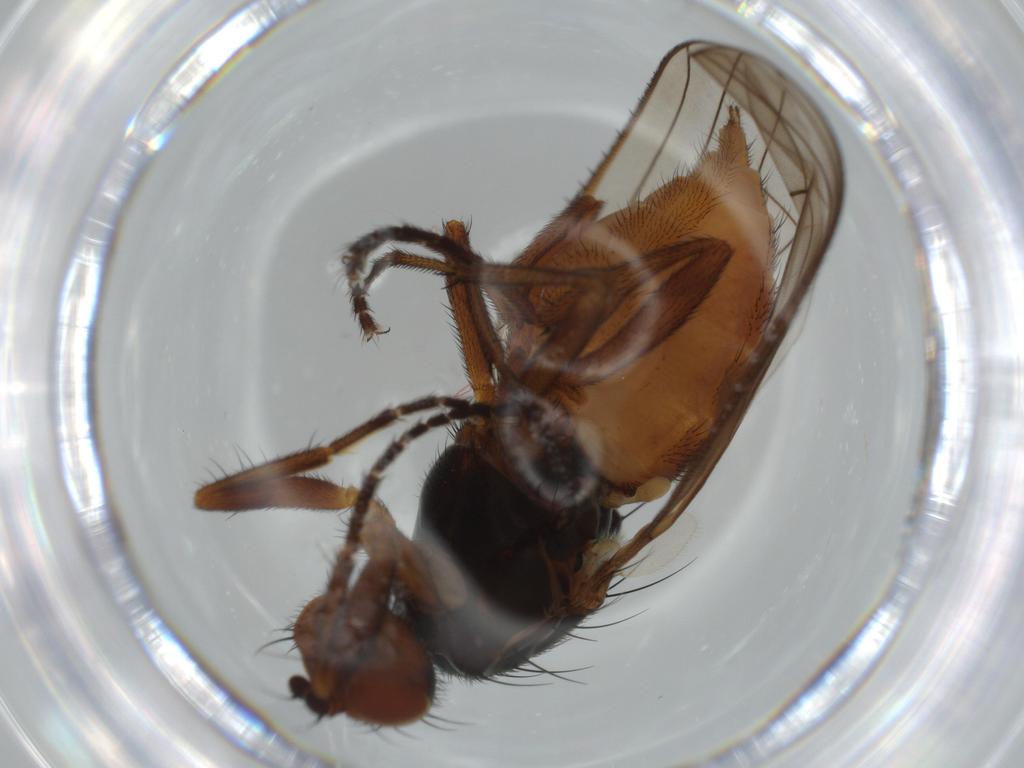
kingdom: Animalia
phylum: Arthropoda
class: Insecta
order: Diptera
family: Heleomyzidae
